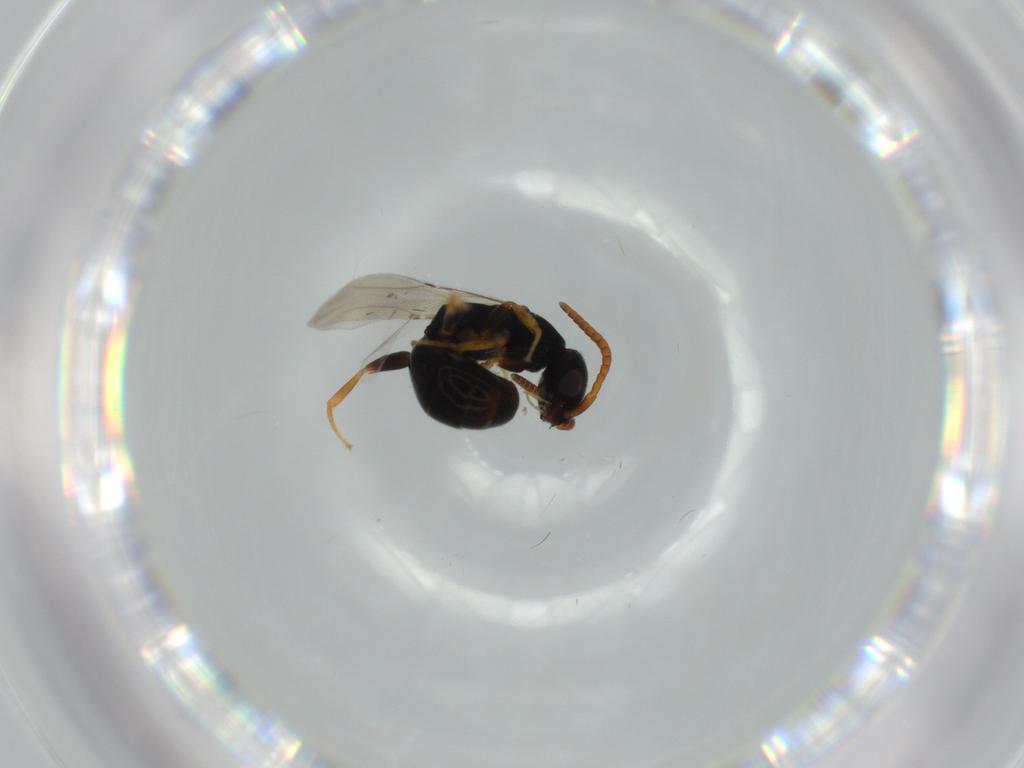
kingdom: Animalia
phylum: Arthropoda
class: Insecta
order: Hymenoptera
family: Bethylidae
